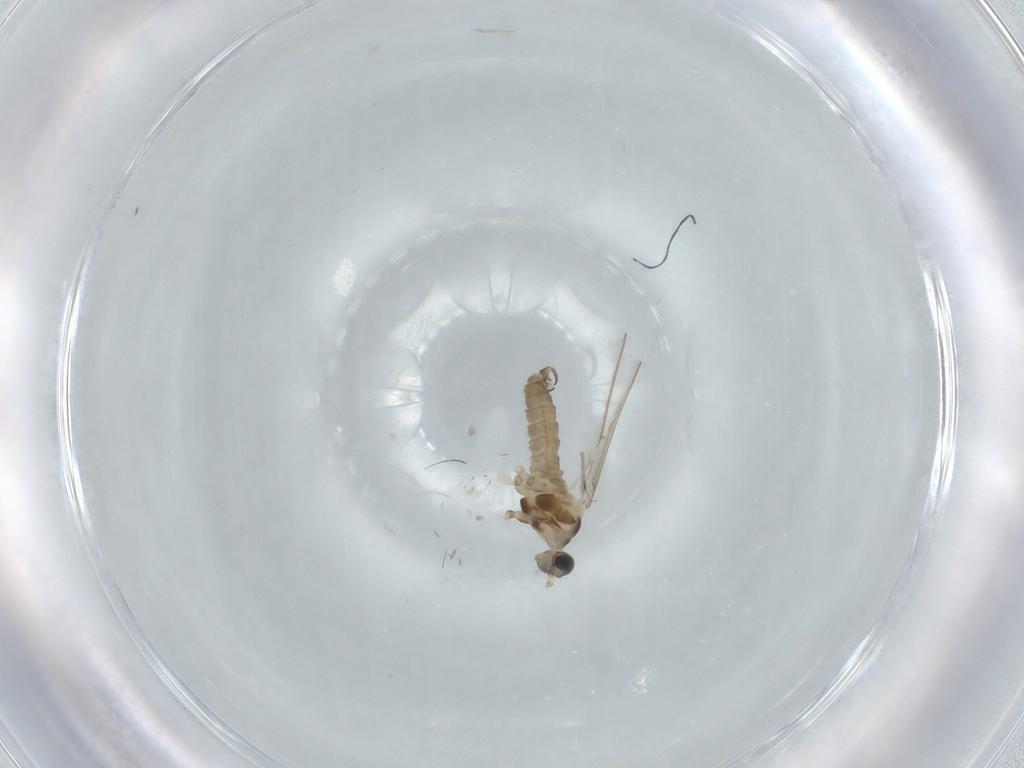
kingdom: Animalia
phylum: Arthropoda
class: Insecta
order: Diptera
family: Cecidomyiidae
